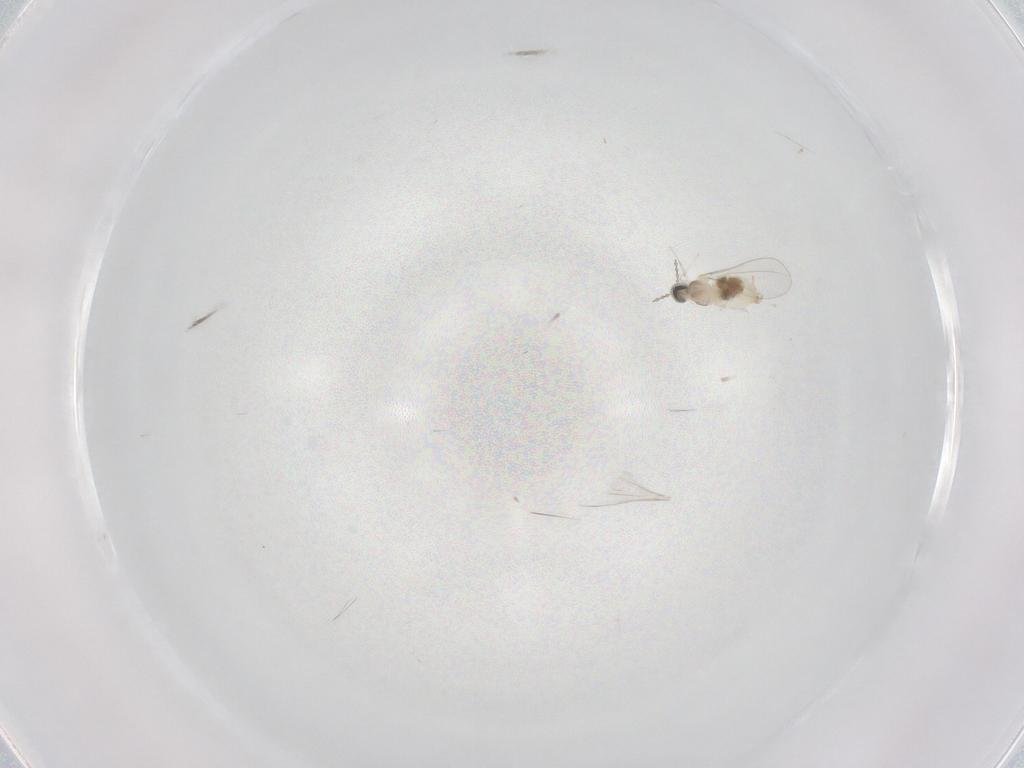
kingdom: Animalia
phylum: Arthropoda
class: Insecta
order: Diptera
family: Cecidomyiidae
